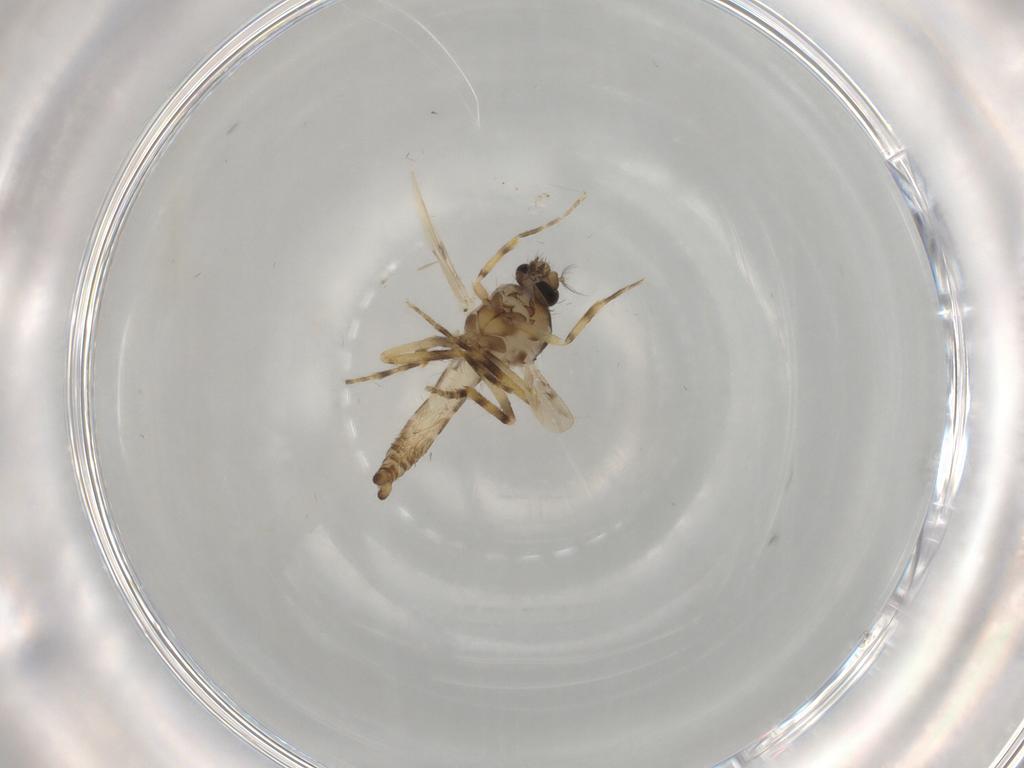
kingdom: Animalia
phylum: Arthropoda
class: Insecta
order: Diptera
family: Ceratopogonidae
